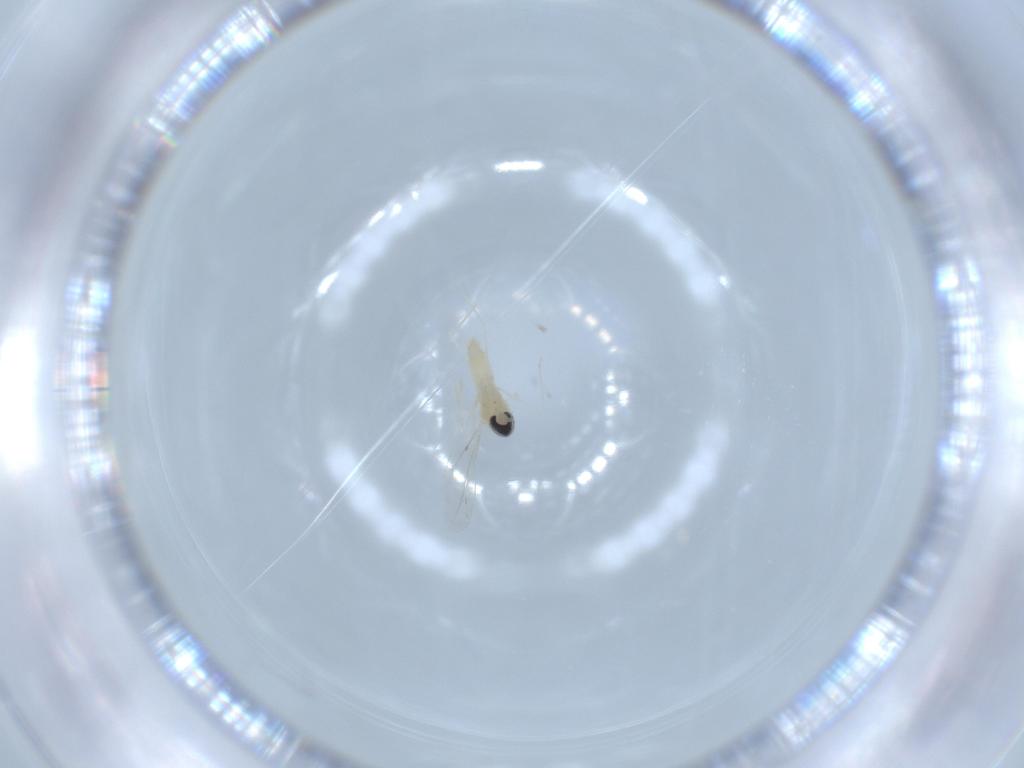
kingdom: Animalia
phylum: Arthropoda
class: Insecta
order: Diptera
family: Cecidomyiidae
